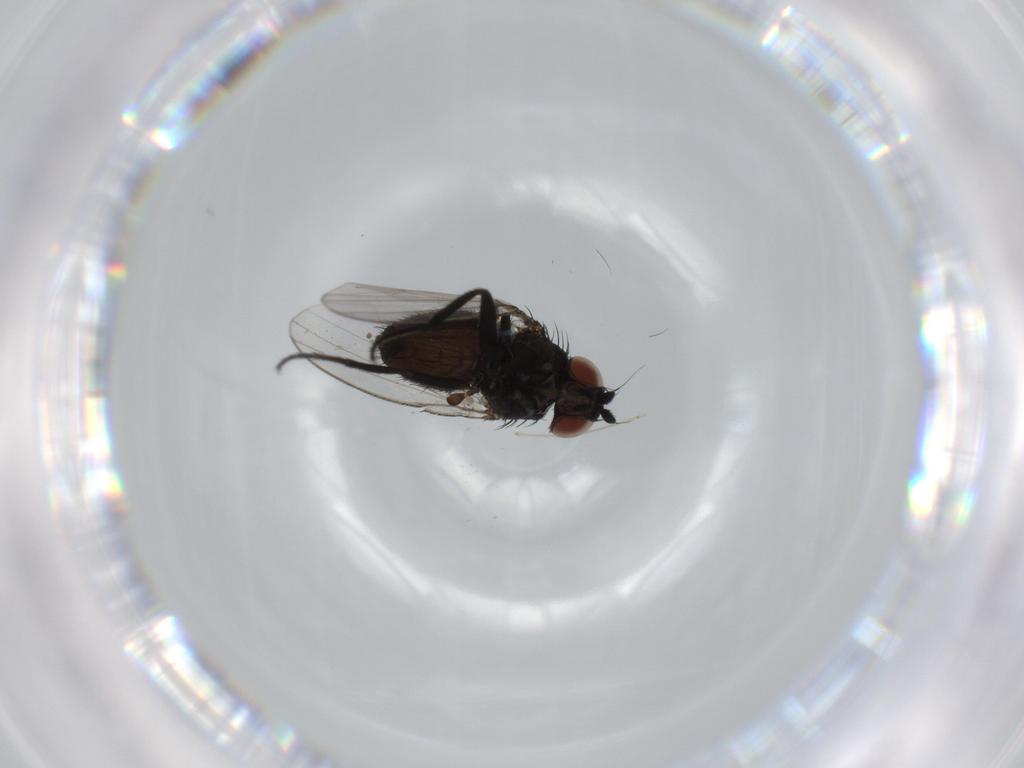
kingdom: Animalia
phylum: Arthropoda
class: Insecta
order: Diptera
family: Milichiidae
